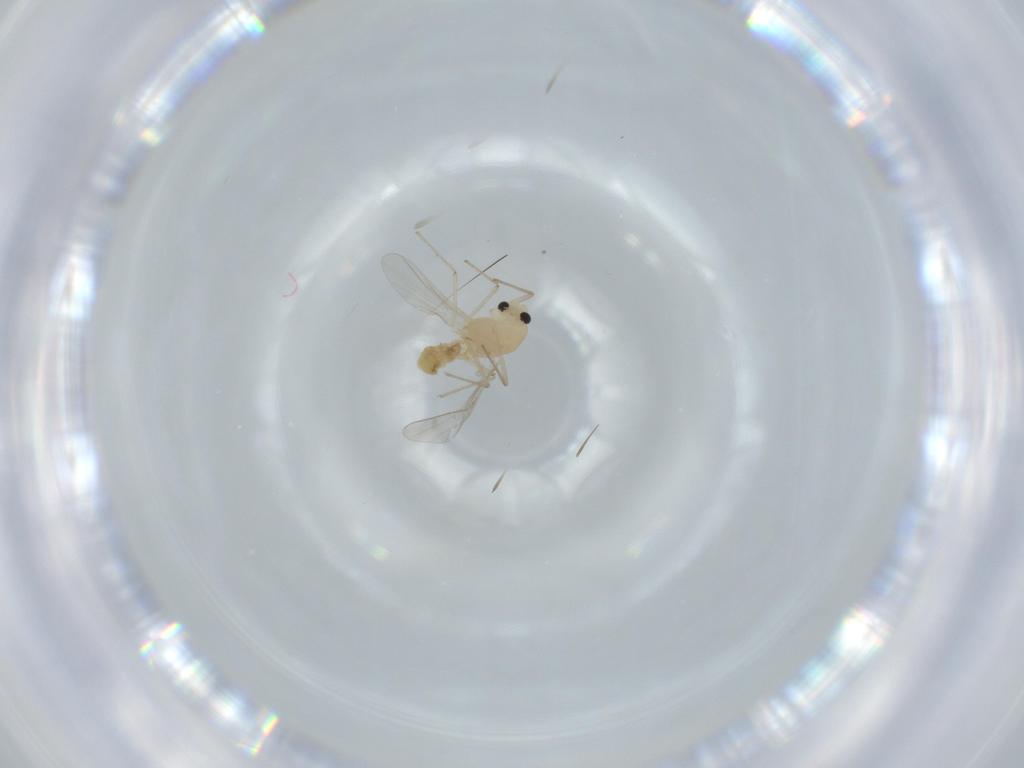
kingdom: Animalia
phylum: Arthropoda
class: Insecta
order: Diptera
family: Chironomidae
